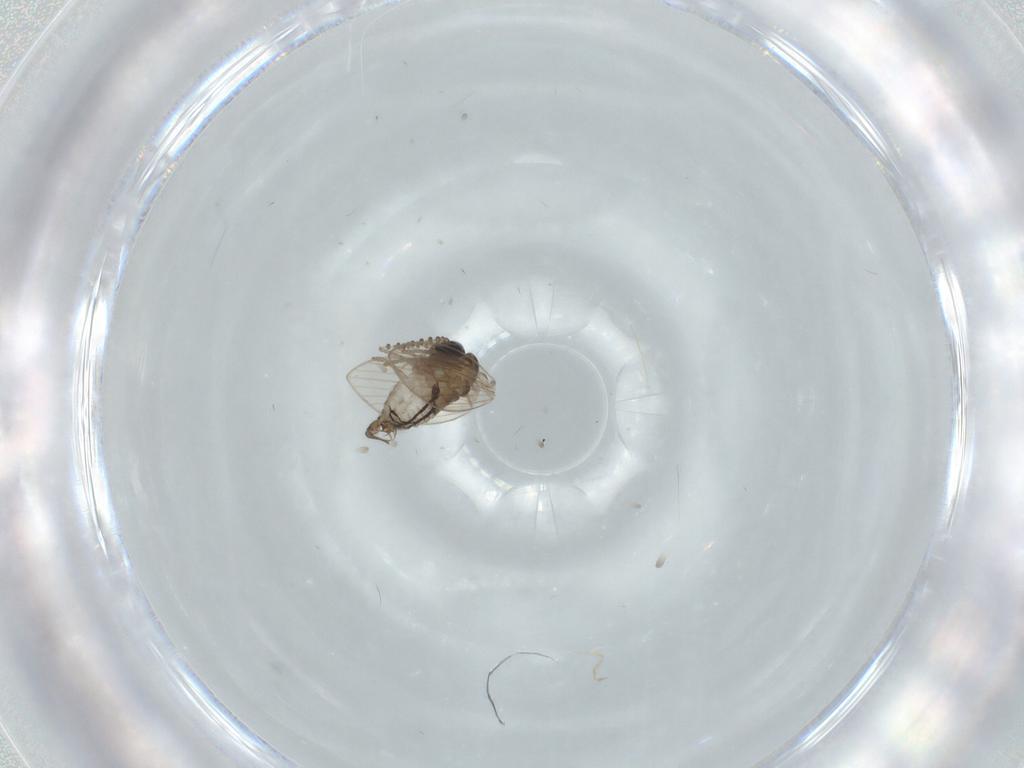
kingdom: Animalia
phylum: Arthropoda
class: Insecta
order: Diptera
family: Psychodidae
